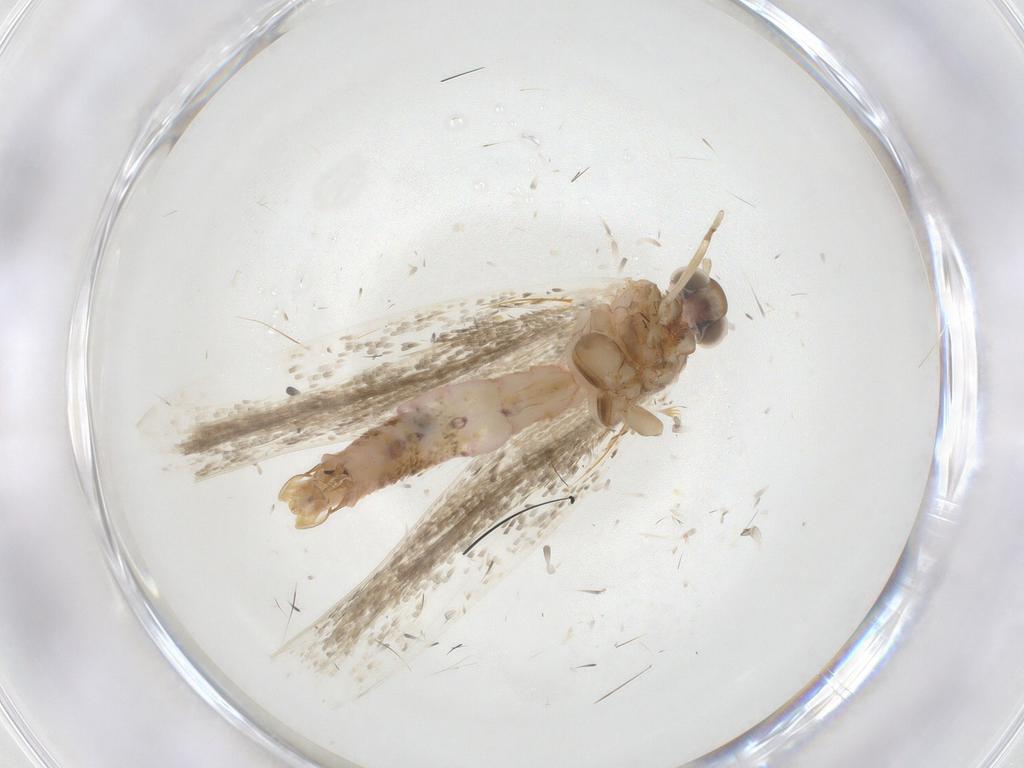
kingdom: Animalia
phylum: Arthropoda
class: Insecta
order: Lepidoptera
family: Crambidae
